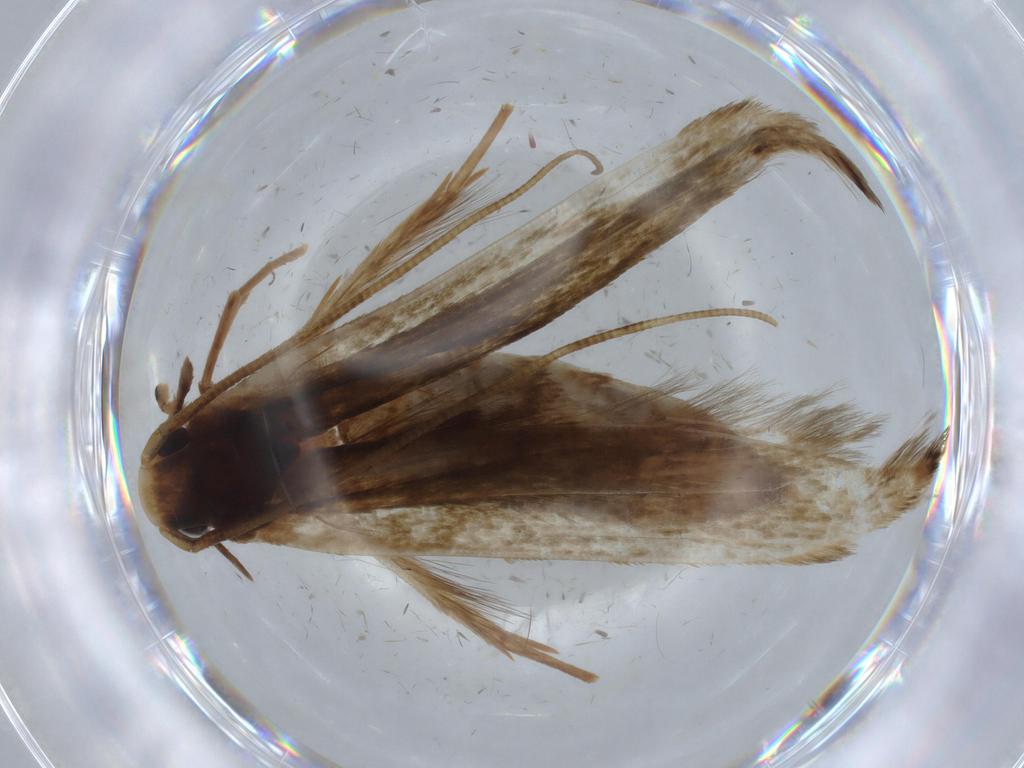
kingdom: Animalia
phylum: Arthropoda
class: Insecta
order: Lepidoptera
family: Tineidae
